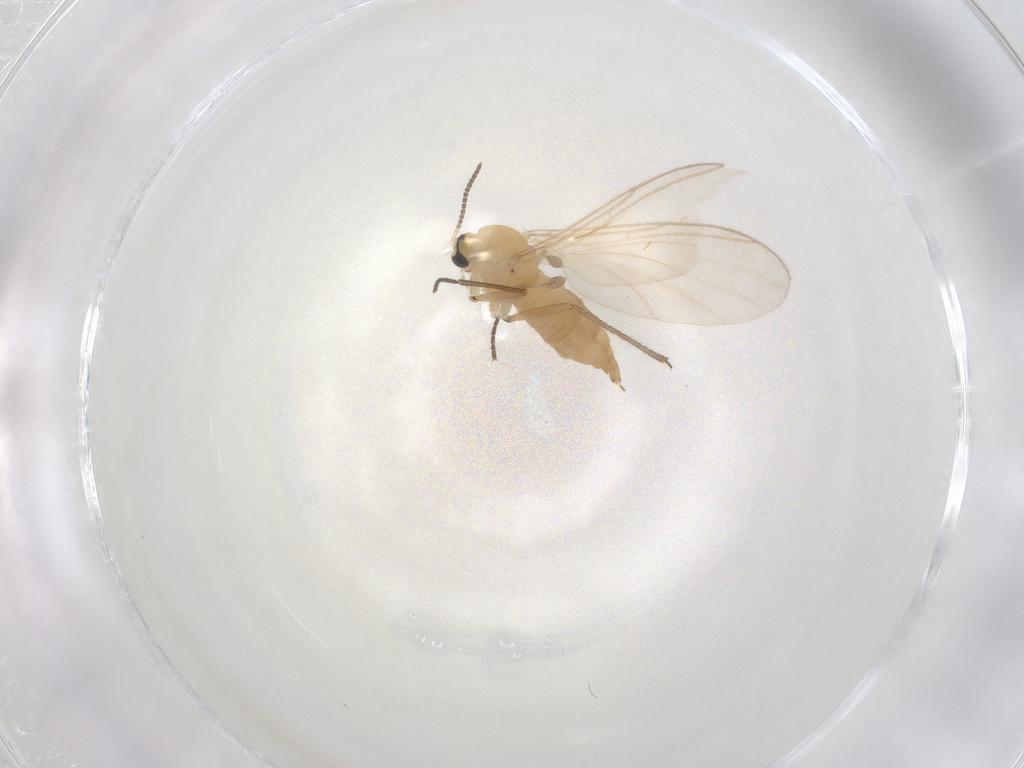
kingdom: Animalia
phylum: Arthropoda
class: Insecta
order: Diptera
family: Sciaridae
